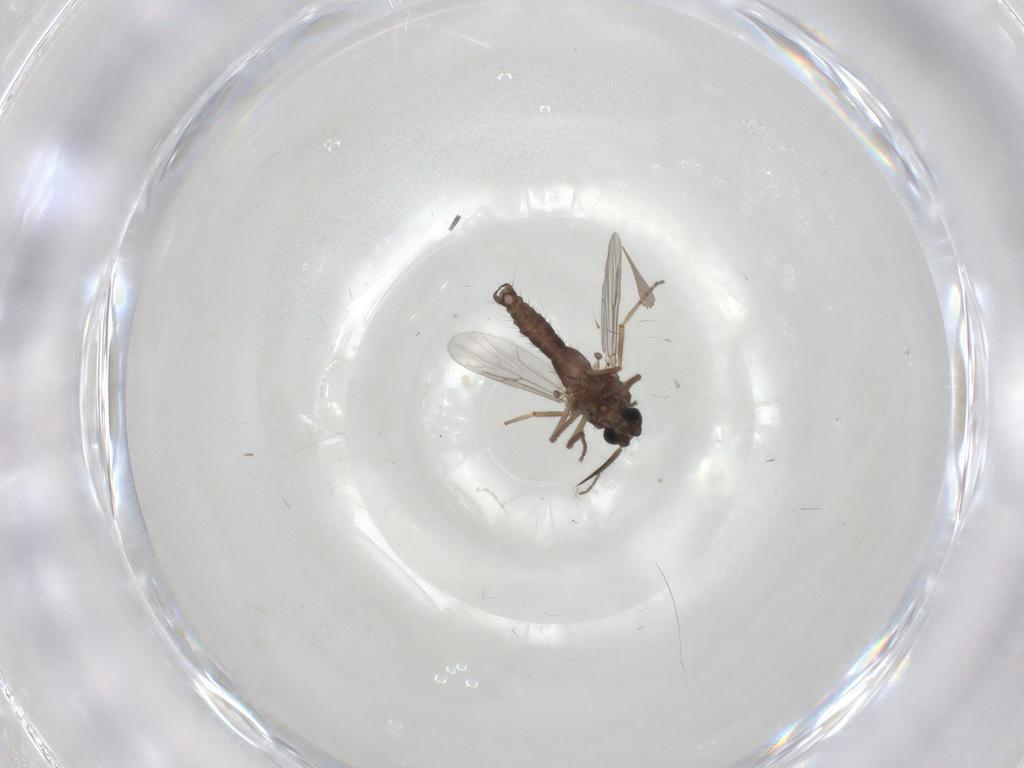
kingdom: Animalia
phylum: Arthropoda
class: Insecta
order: Diptera
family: Ceratopogonidae
